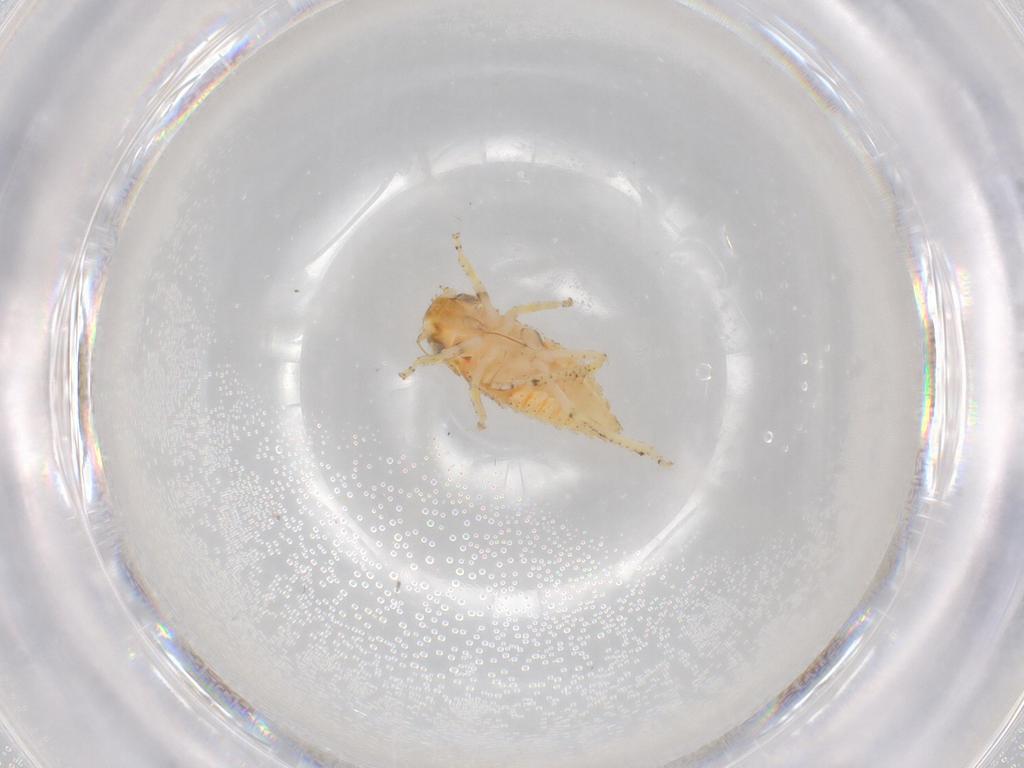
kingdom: Animalia
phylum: Arthropoda
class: Insecta
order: Hemiptera
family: Cicadellidae
